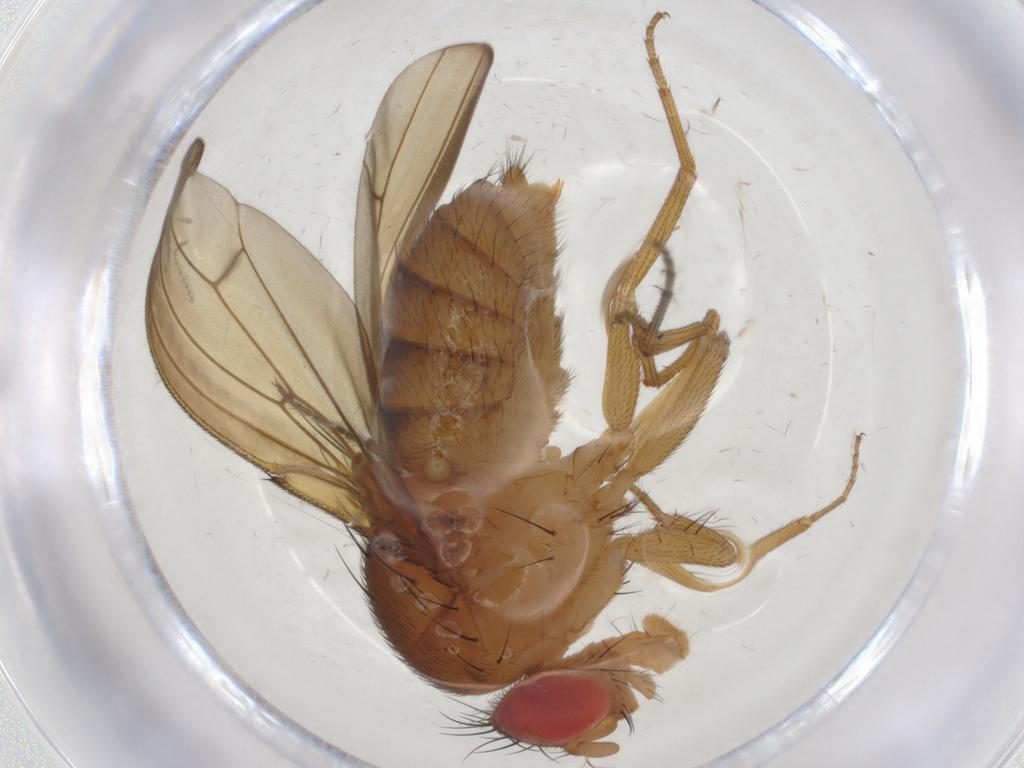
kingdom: Animalia
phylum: Arthropoda
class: Insecta
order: Diptera
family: Drosophilidae
